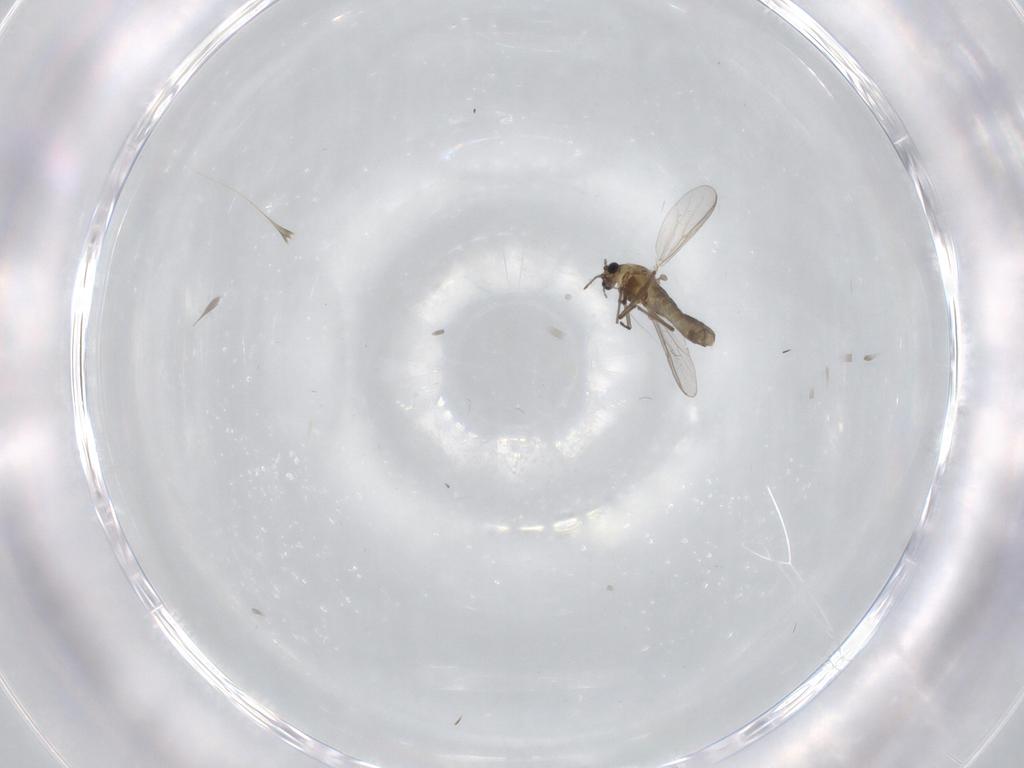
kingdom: Animalia
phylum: Arthropoda
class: Insecta
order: Diptera
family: Chironomidae
